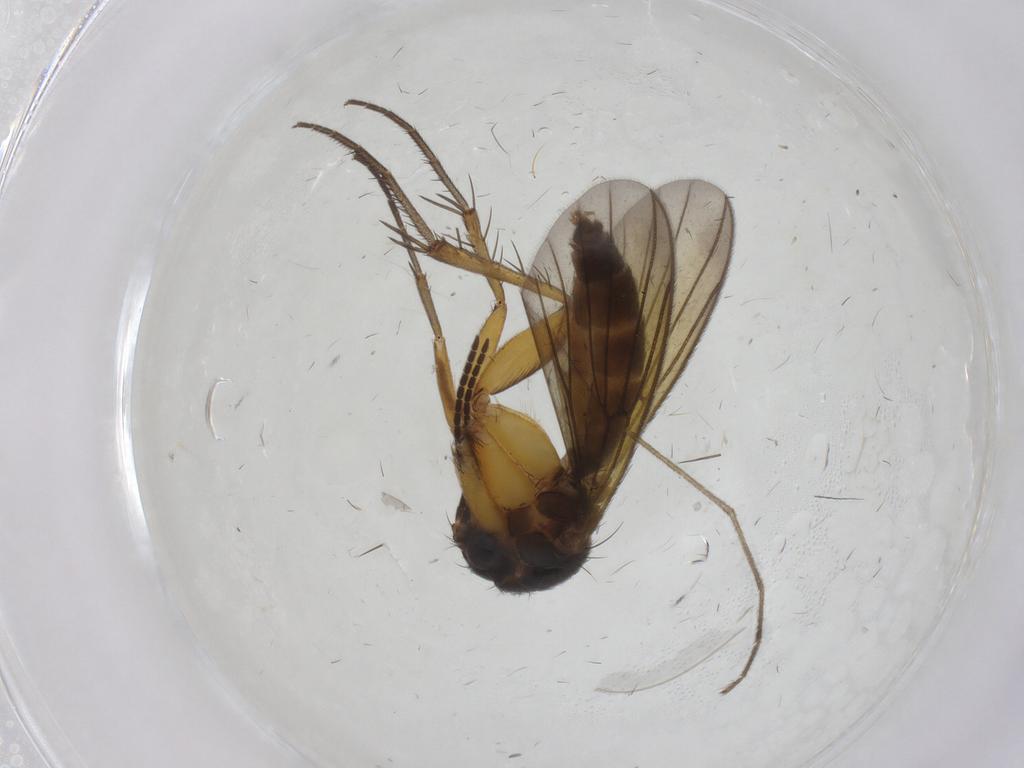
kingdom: Animalia
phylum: Arthropoda
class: Insecta
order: Diptera
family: Mycetophilidae
